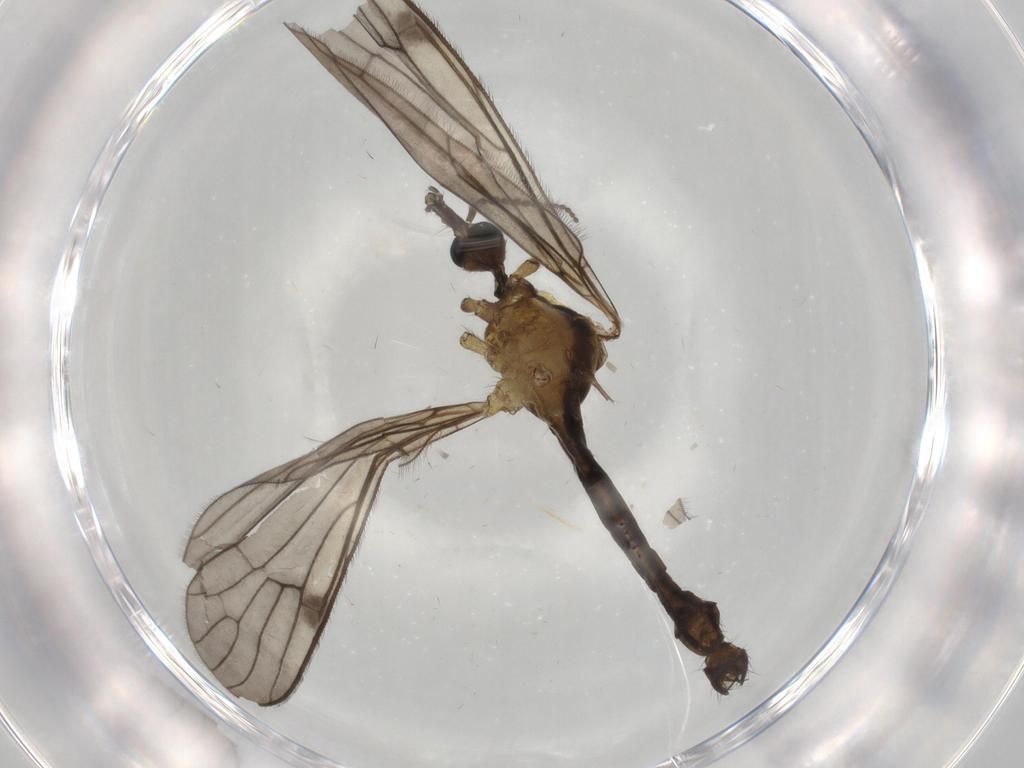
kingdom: Animalia
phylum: Arthropoda
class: Insecta
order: Diptera
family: Limoniidae
